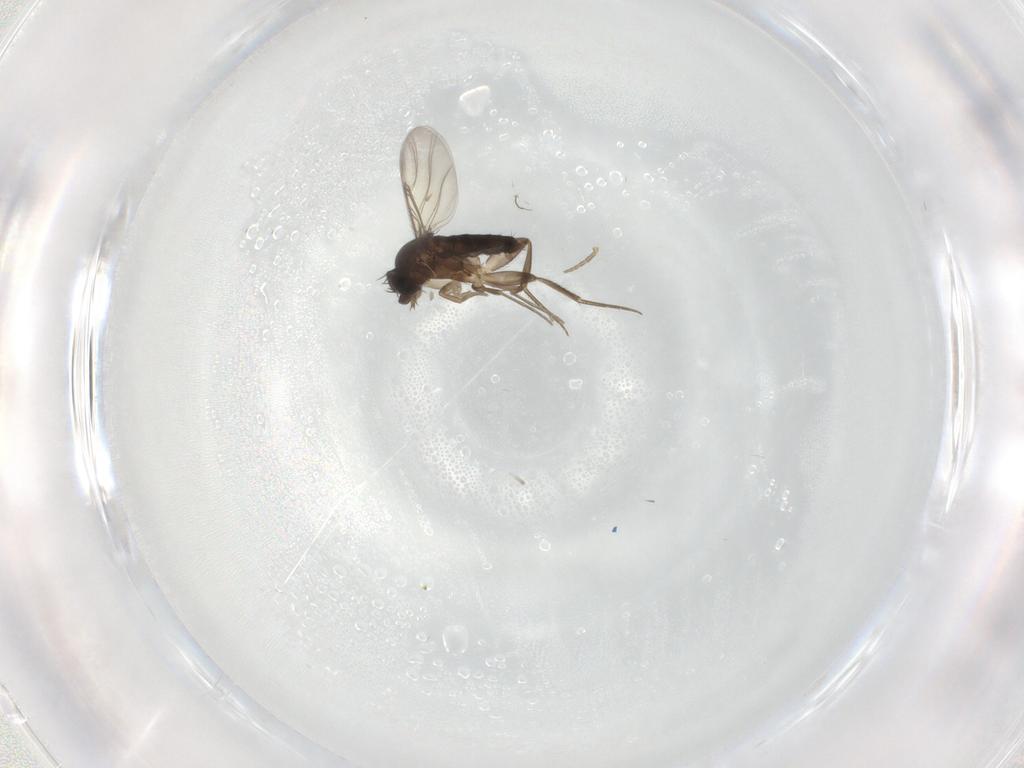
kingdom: Animalia
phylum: Arthropoda
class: Insecta
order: Diptera
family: Phoridae
